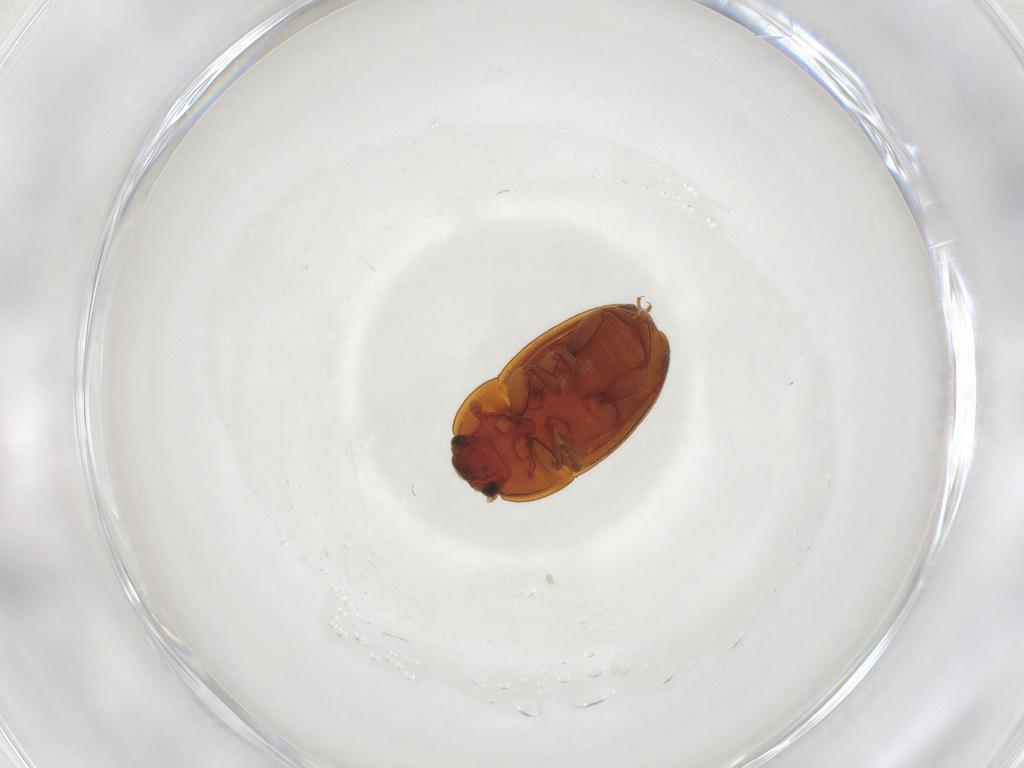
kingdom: Animalia
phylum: Arthropoda
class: Insecta
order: Coleoptera
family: Nitidulidae
